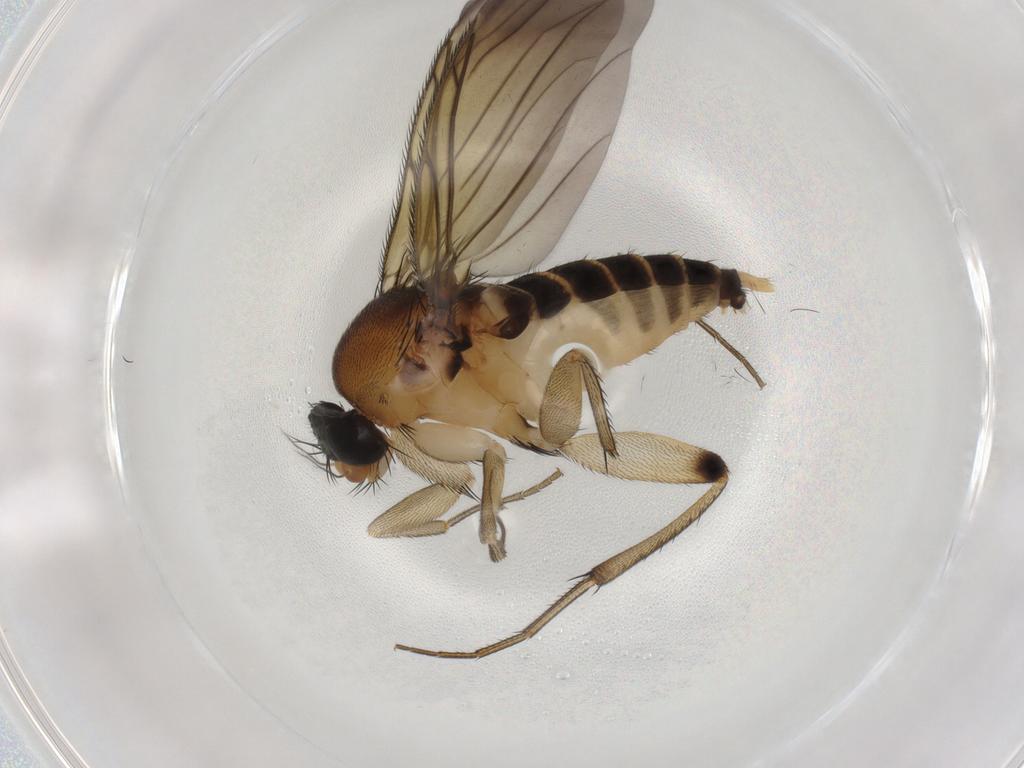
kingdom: Animalia
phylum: Arthropoda
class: Insecta
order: Diptera
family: Phoridae
